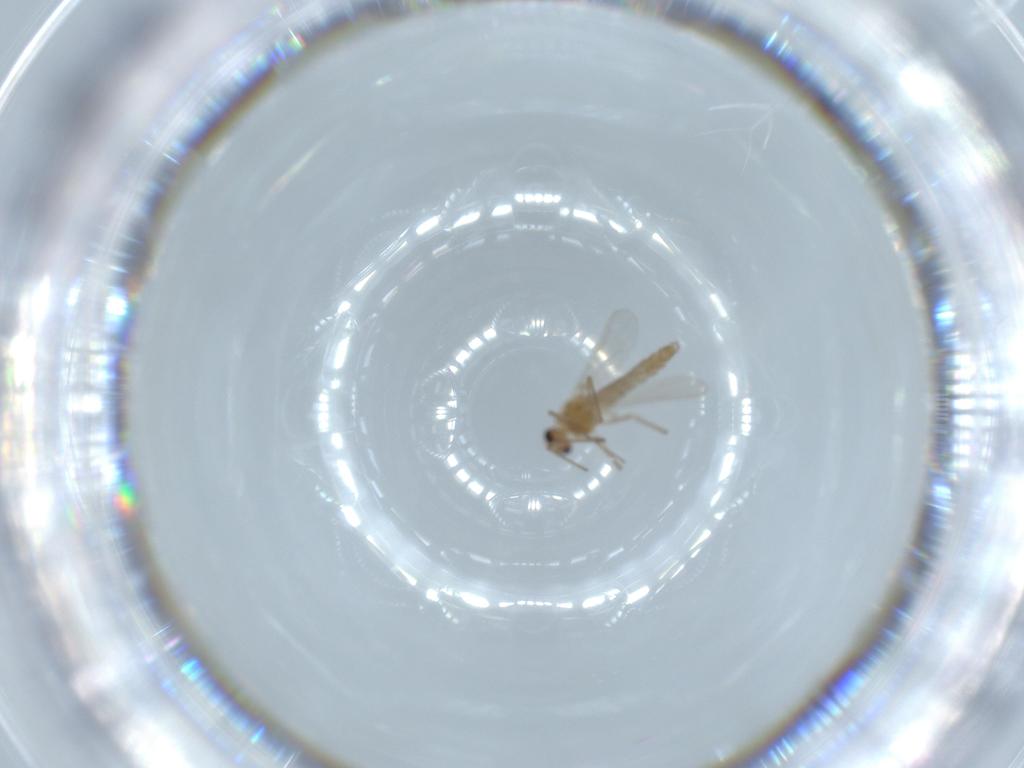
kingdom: Animalia
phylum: Arthropoda
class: Insecta
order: Diptera
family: Chironomidae
